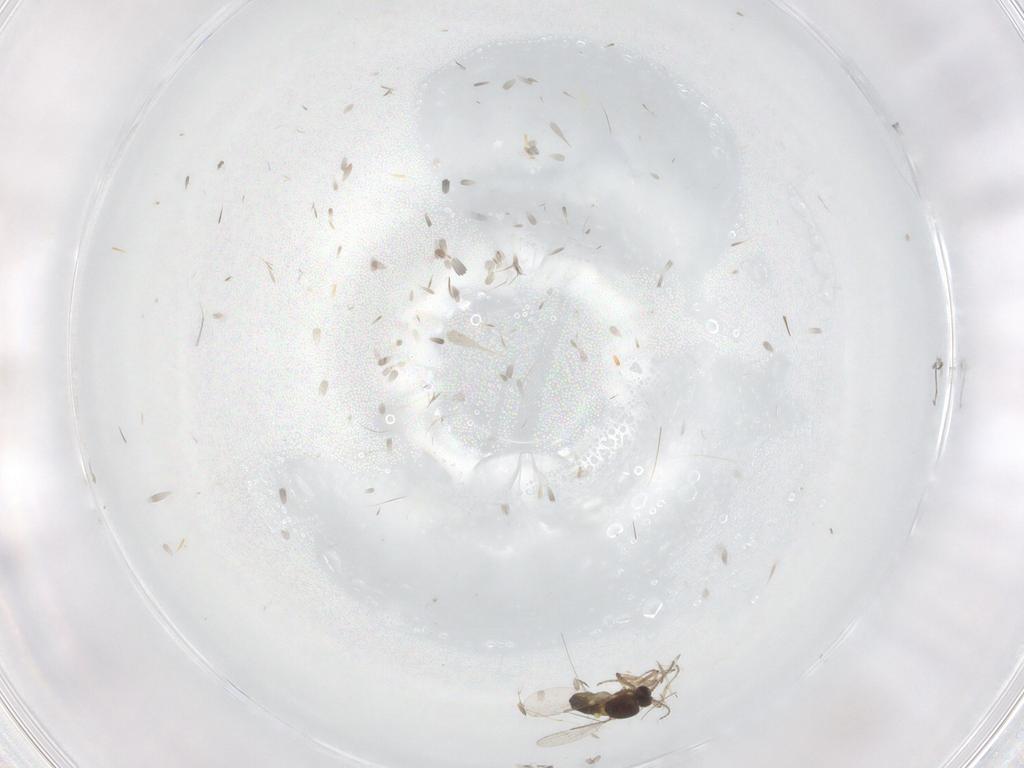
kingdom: Animalia
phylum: Arthropoda
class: Insecta
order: Diptera
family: Ceratopogonidae
